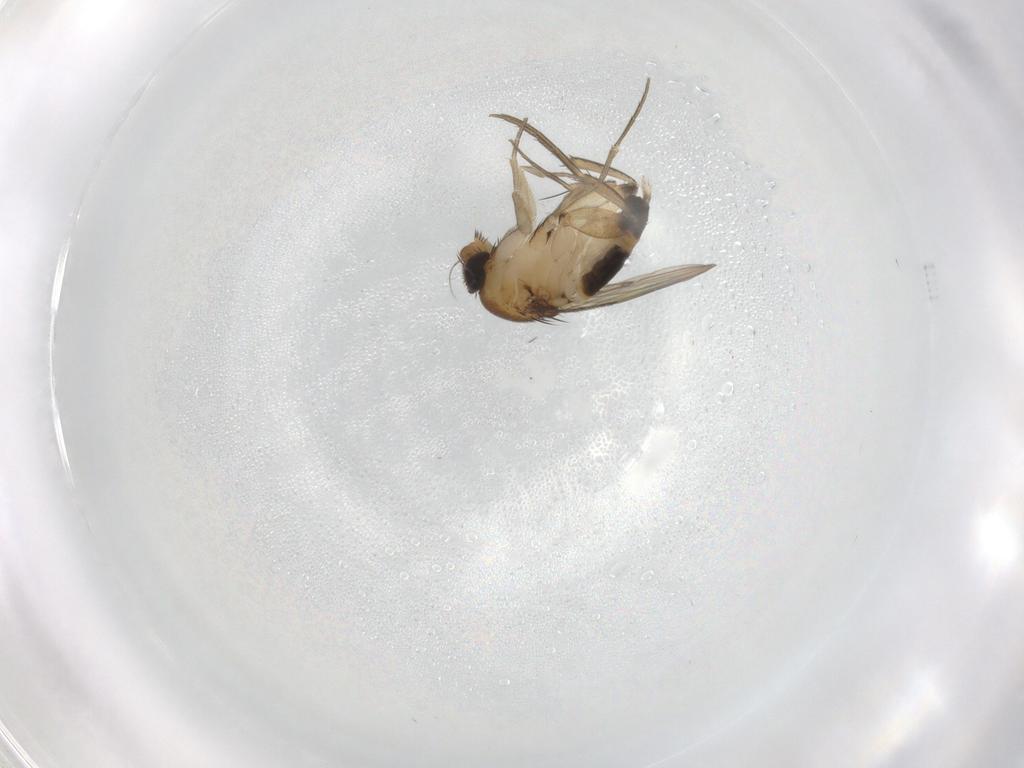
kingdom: Animalia
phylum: Arthropoda
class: Insecta
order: Diptera
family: Phoridae
